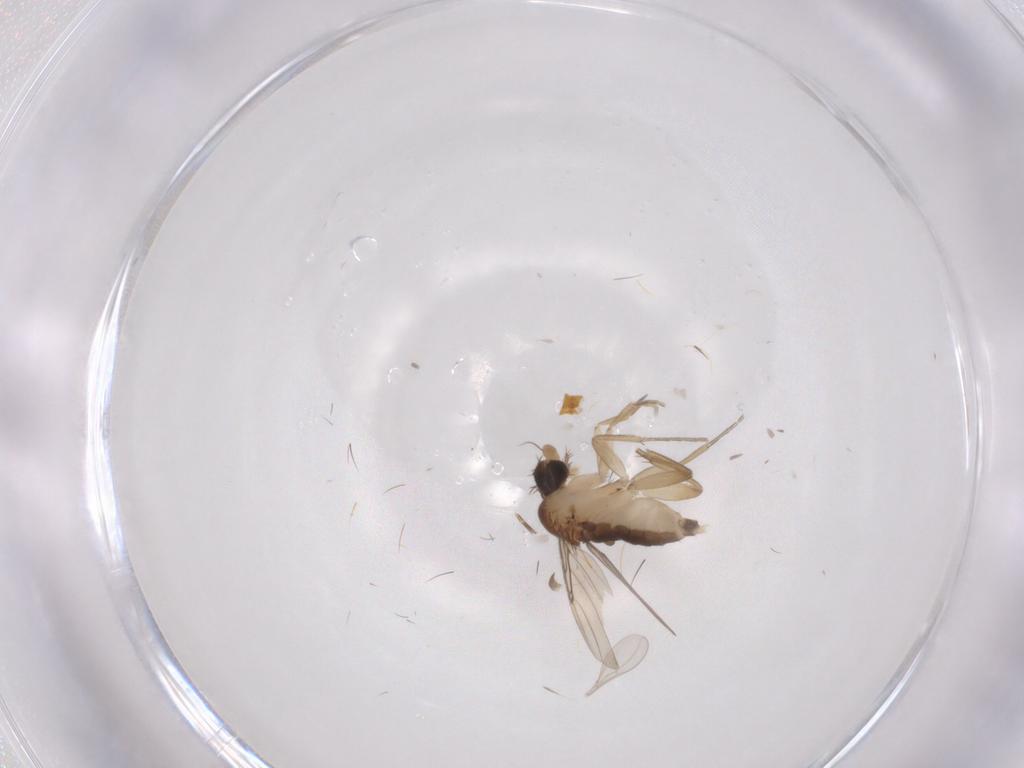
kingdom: Animalia
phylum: Arthropoda
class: Insecta
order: Diptera
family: Phoridae
